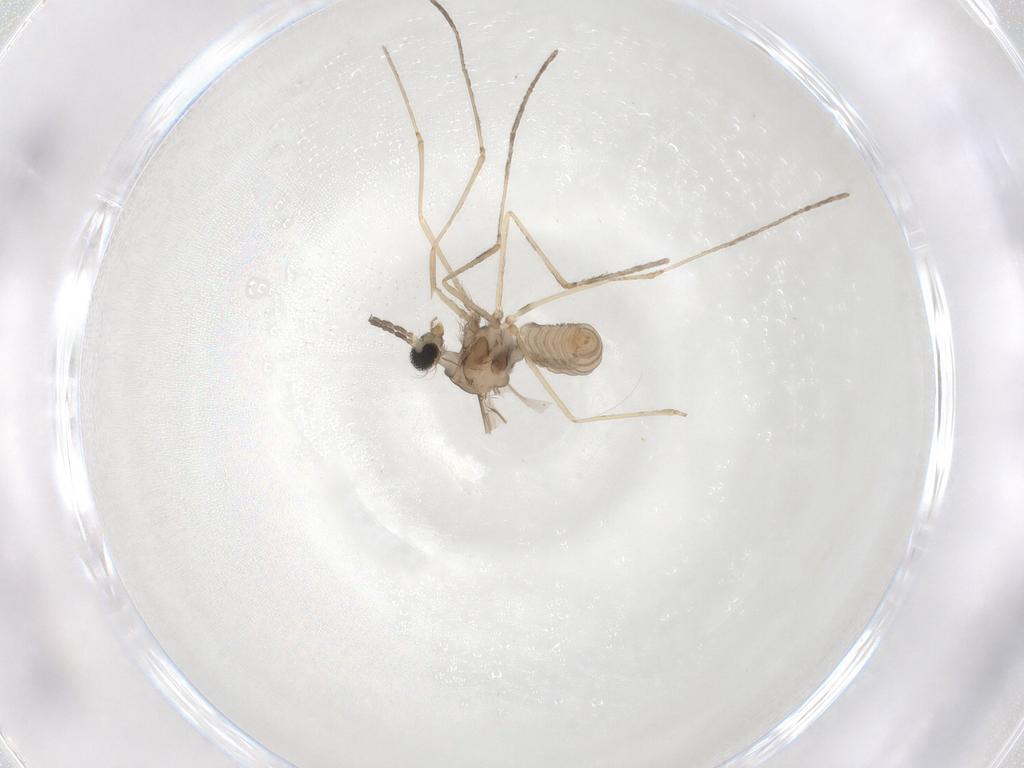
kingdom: Animalia
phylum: Arthropoda
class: Insecta
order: Diptera
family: Cecidomyiidae
